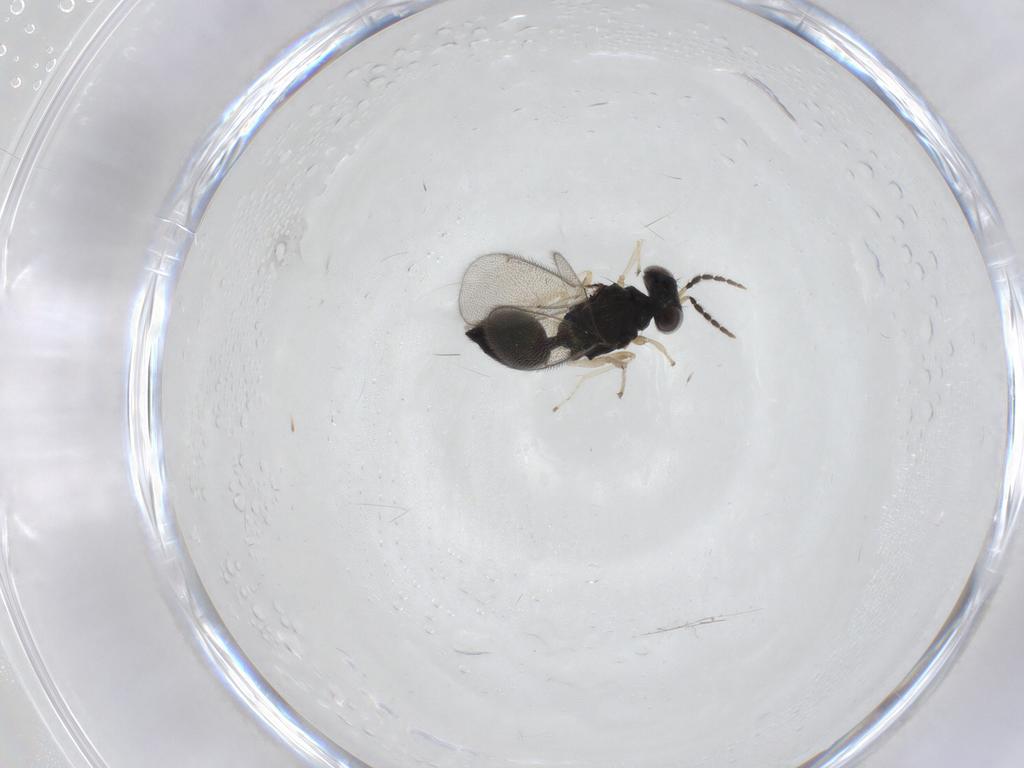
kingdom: Animalia
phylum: Arthropoda
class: Insecta
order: Hymenoptera
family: Eulophidae
